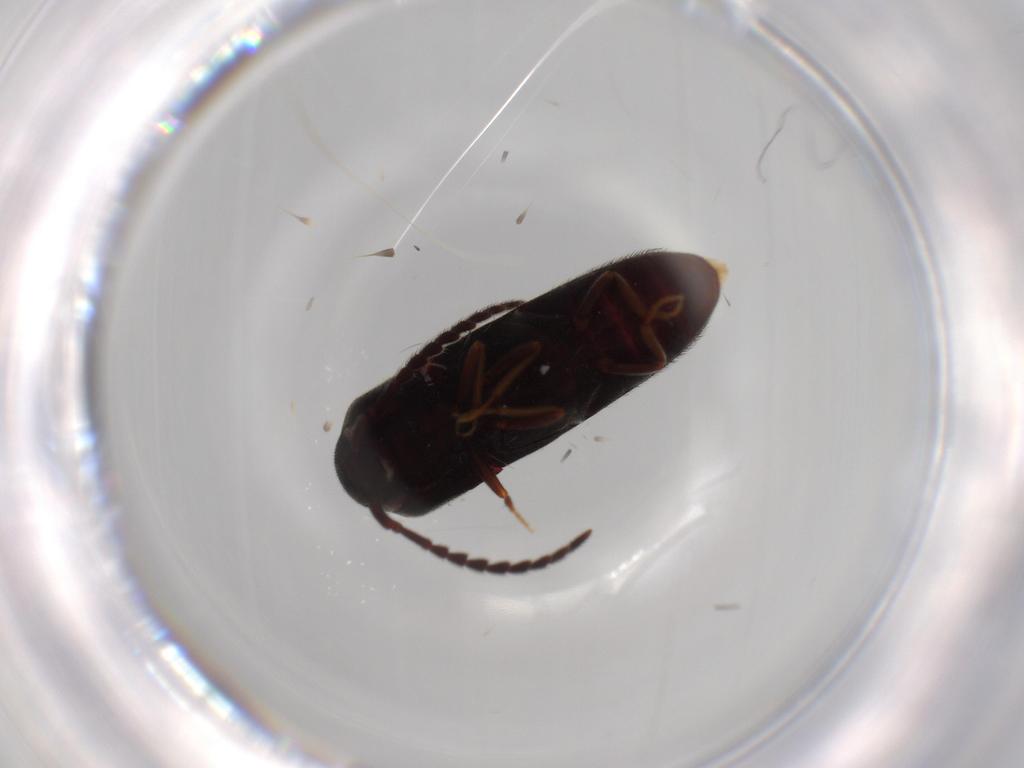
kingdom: Animalia
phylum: Arthropoda
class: Insecta
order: Coleoptera
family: Eucnemidae
